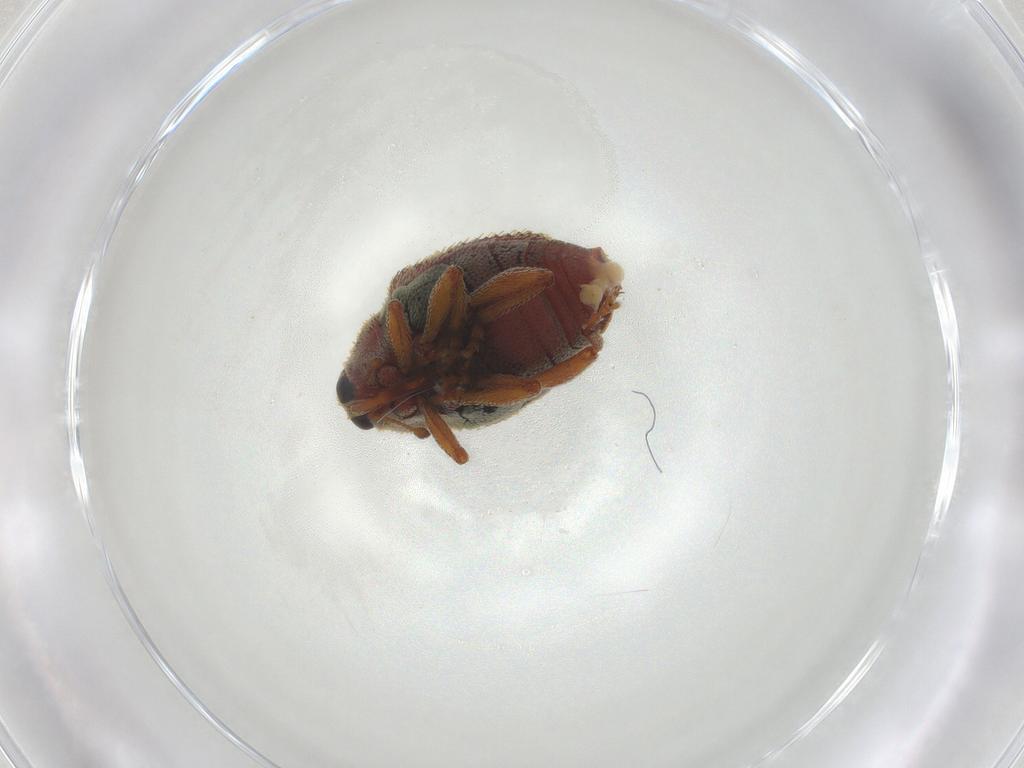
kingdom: Animalia
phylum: Arthropoda
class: Insecta
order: Coleoptera
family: Curculionidae
